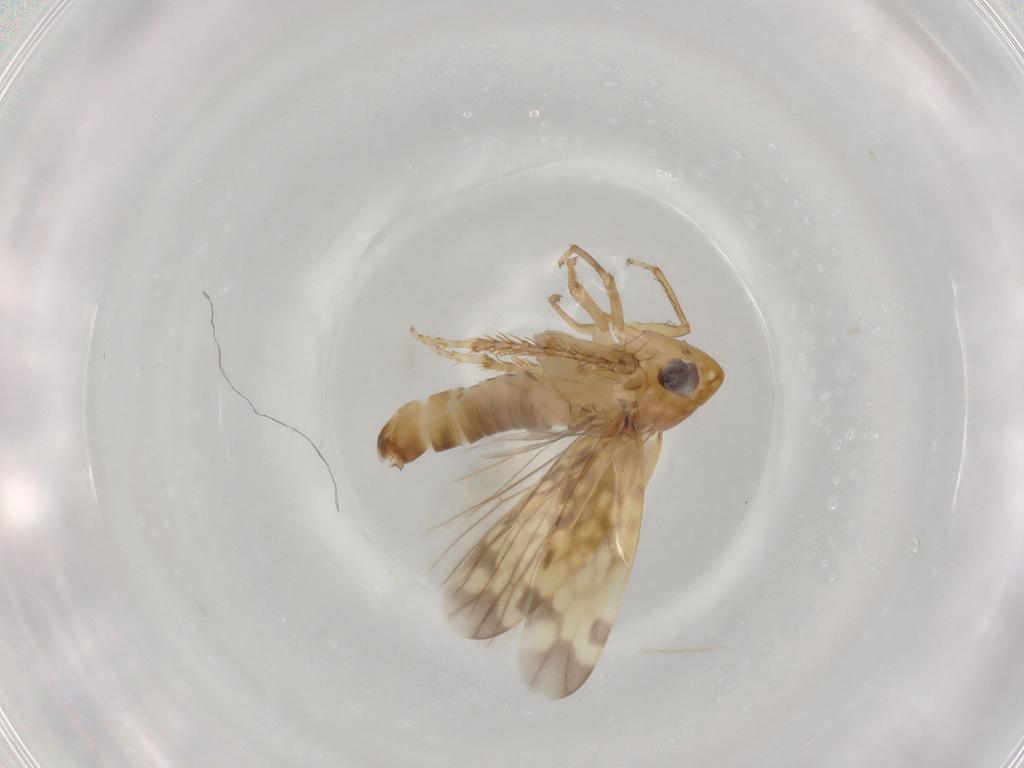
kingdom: Animalia
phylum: Arthropoda
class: Insecta
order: Hemiptera
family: Cicadellidae
